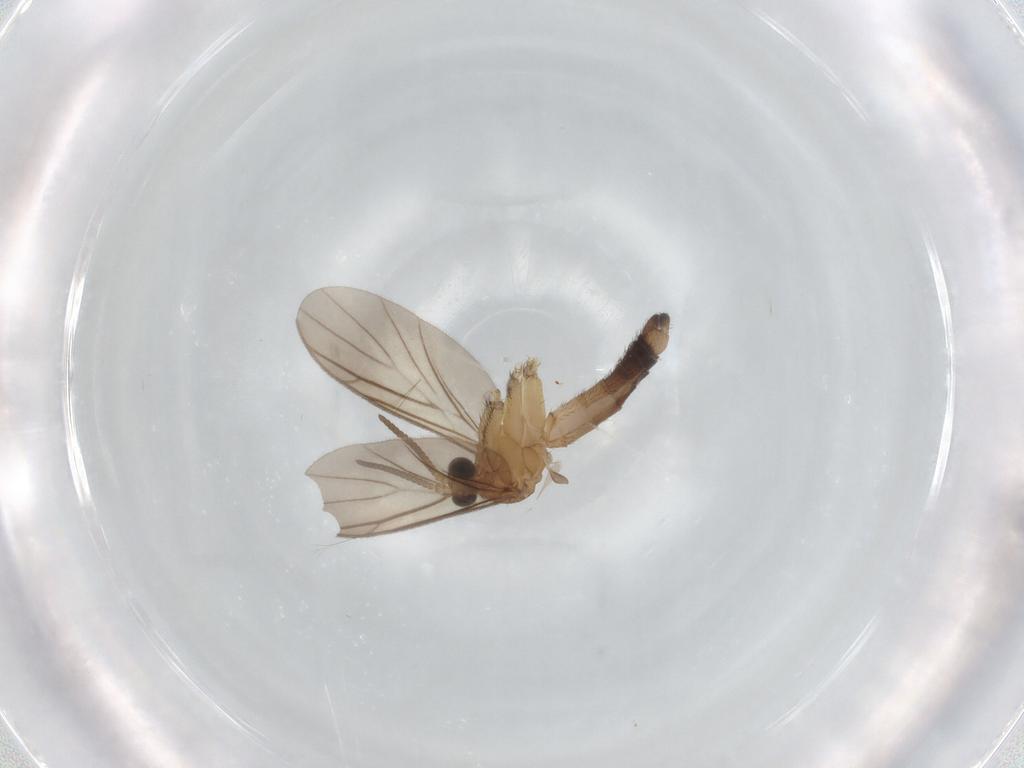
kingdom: Animalia
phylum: Arthropoda
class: Insecta
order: Diptera
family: Keroplatidae
